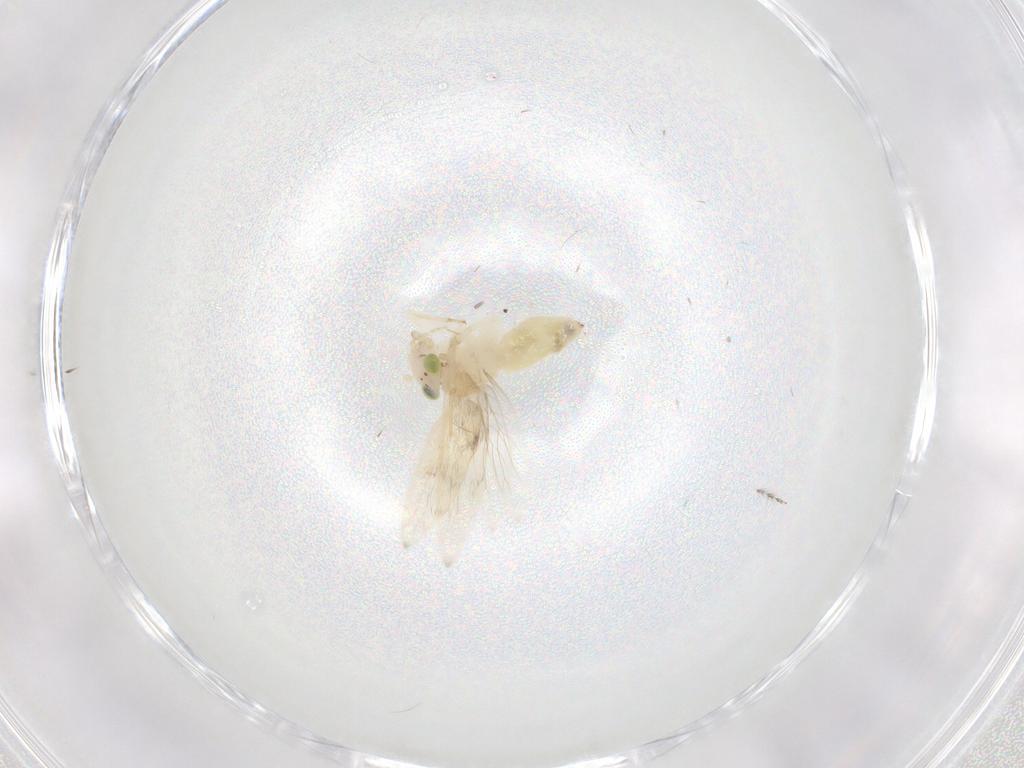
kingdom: Animalia
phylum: Arthropoda
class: Insecta
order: Psocodea
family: Lepidopsocidae
